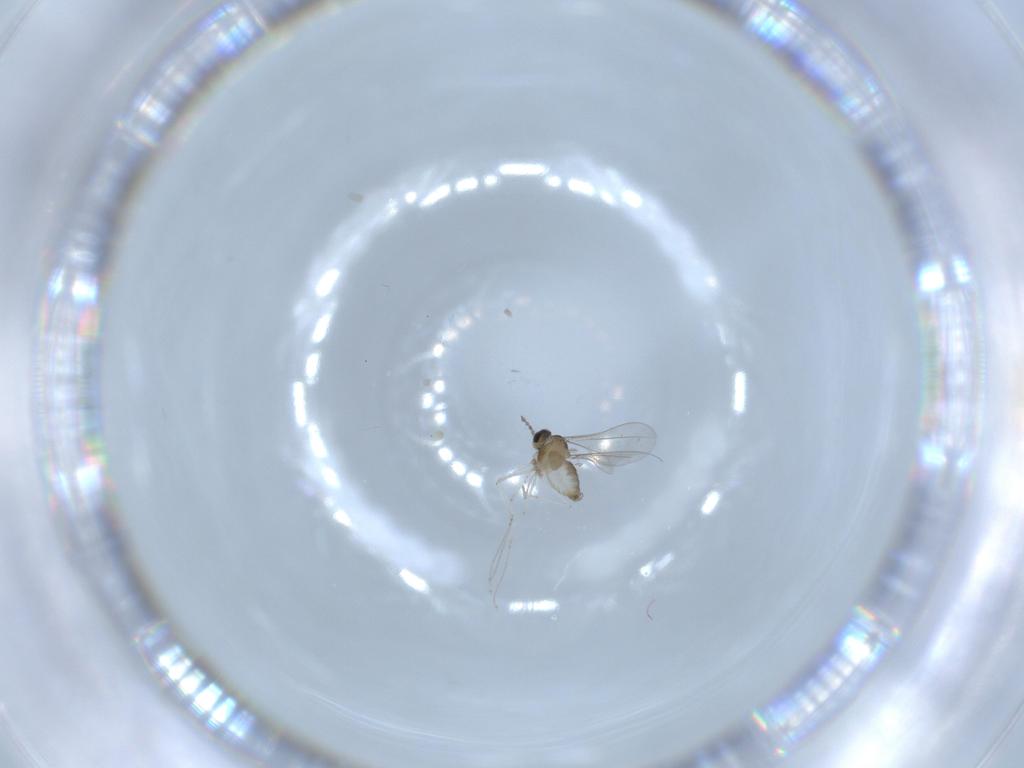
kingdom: Animalia
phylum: Arthropoda
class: Insecta
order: Diptera
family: Cecidomyiidae
